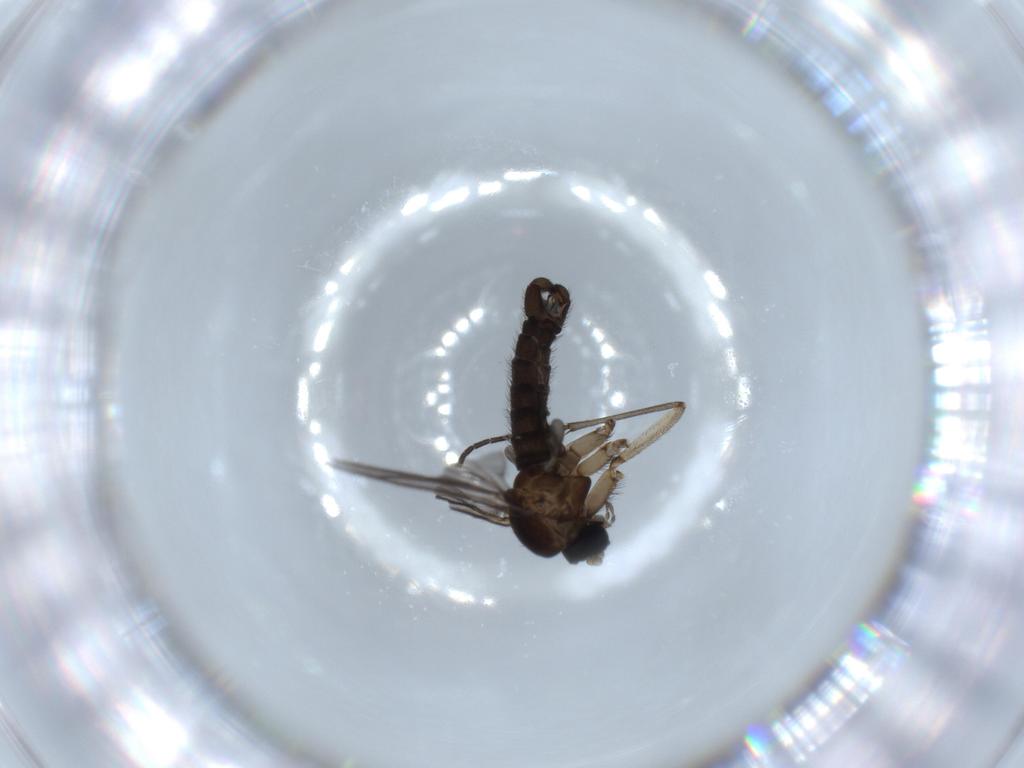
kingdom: Animalia
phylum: Arthropoda
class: Insecta
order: Diptera
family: Sciaridae
